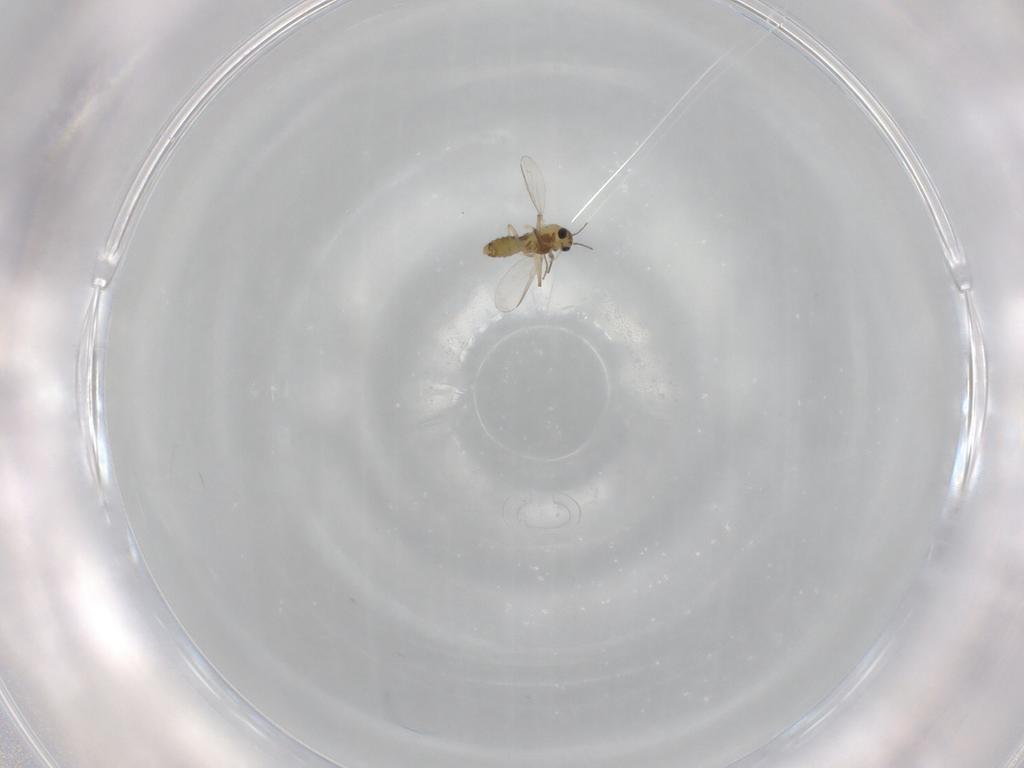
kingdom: Animalia
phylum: Arthropoda
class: Insecta
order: Diptera
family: Chironomidae
